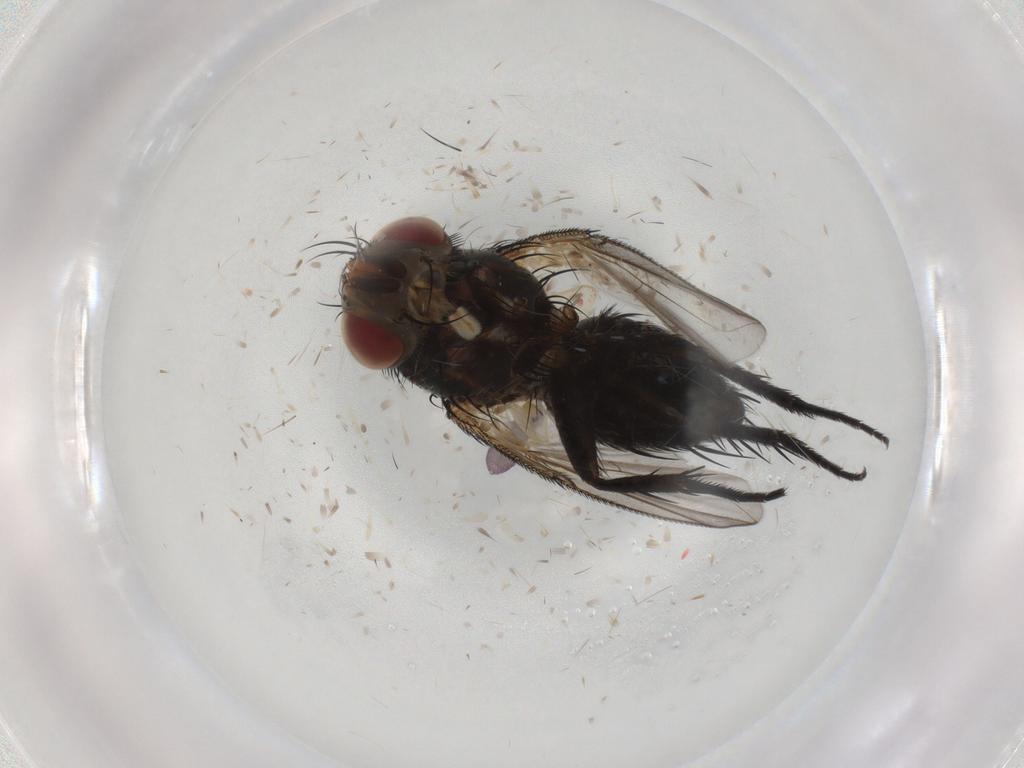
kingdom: Animalia
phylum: Arthropoda
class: Insecta
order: Diptera
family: Tachinidae
